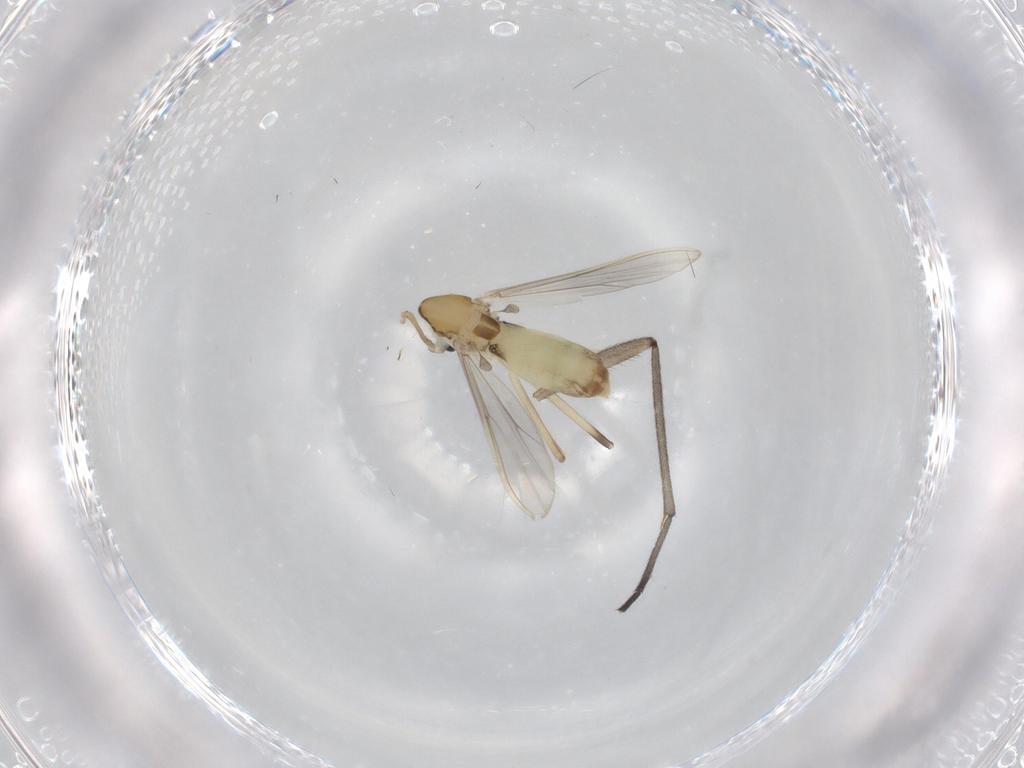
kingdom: Animalia
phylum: Arthropoda
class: Insecta
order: Diptera
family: Chironomidae
